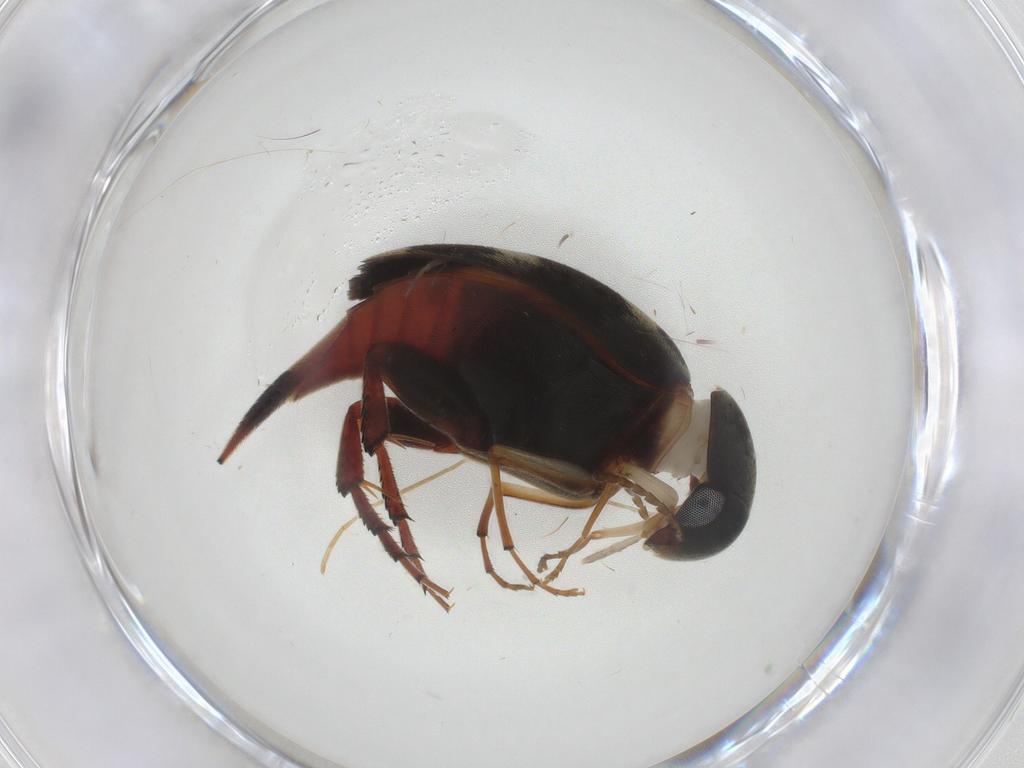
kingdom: Animalia
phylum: Arthropoda
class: Insecta
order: Coleoptera
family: Mordellidae
